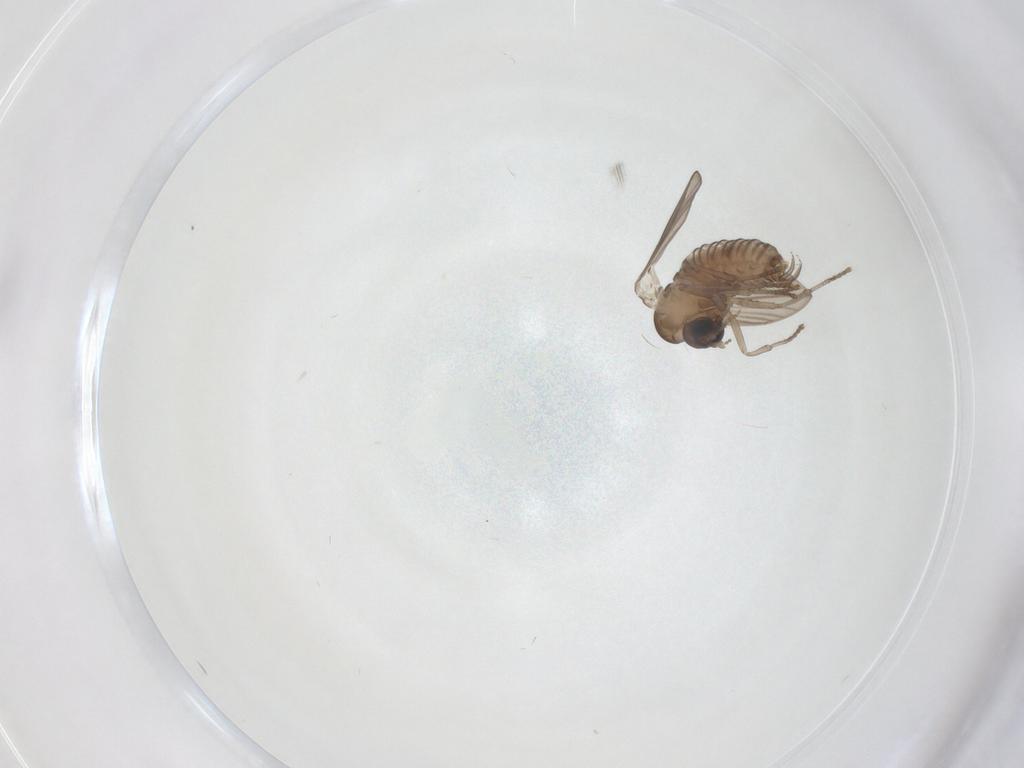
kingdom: Animalia
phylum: Arthropoda
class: Insecta
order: Diptera
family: Psychodidae
